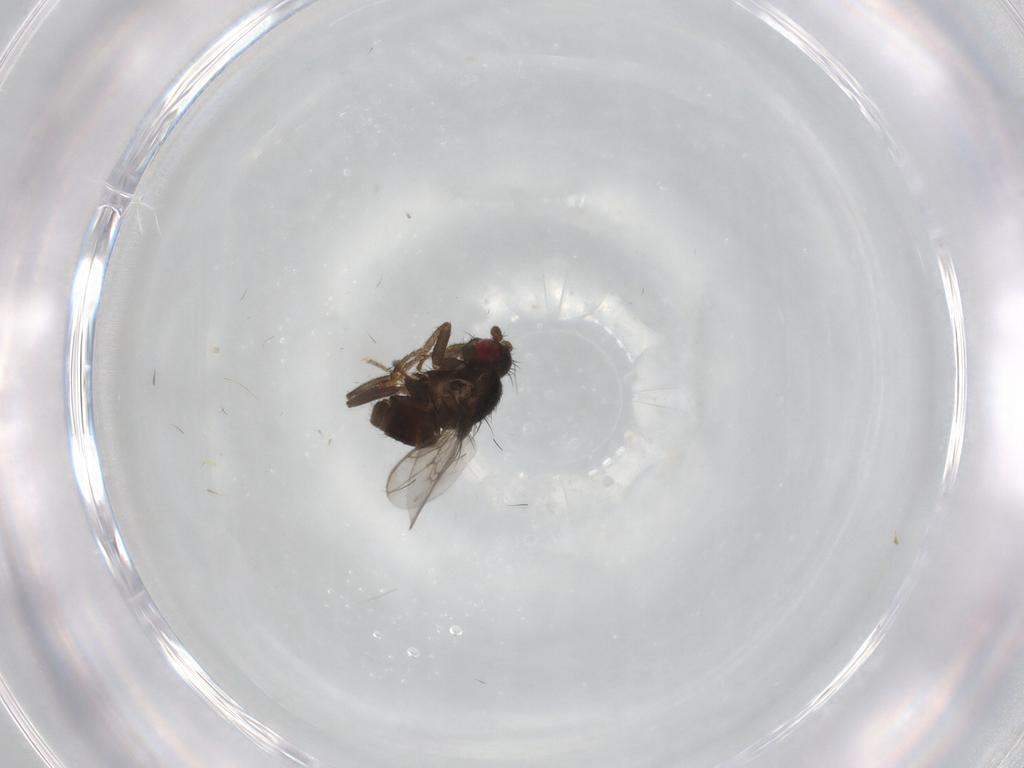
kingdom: Animalia
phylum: Arthropoda
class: Insecta
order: Diptera
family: Sphaeroceridae
